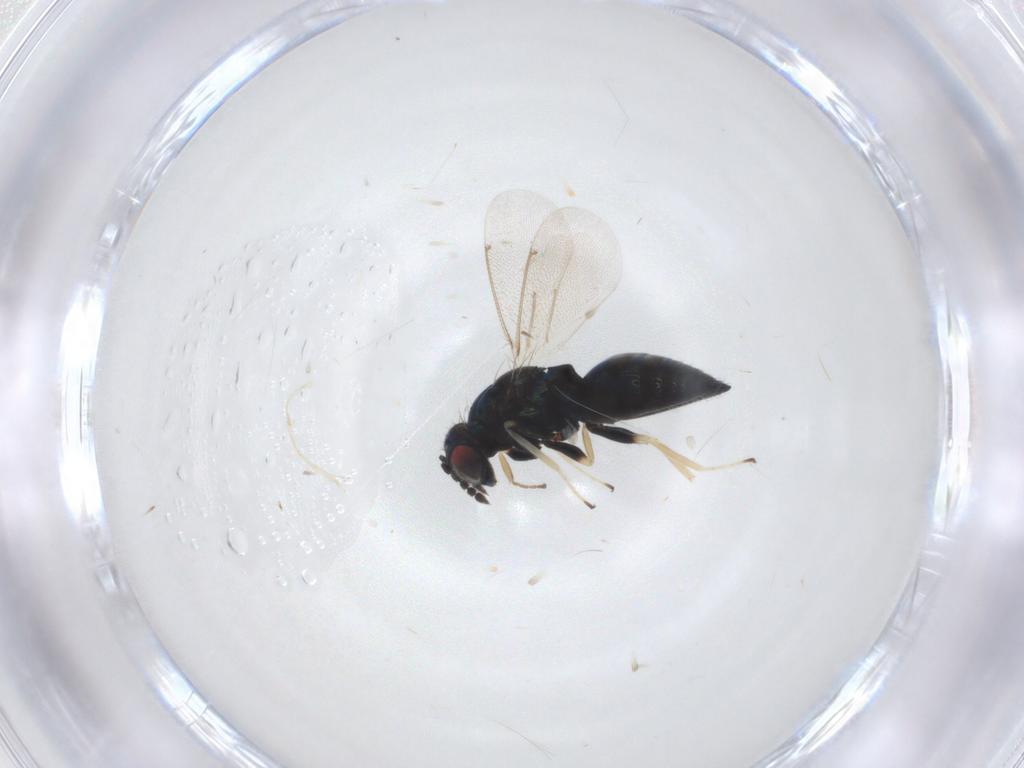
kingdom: Animalia
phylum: Arthropoda
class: Insecta
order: Hymenoptera
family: Eulophidae
